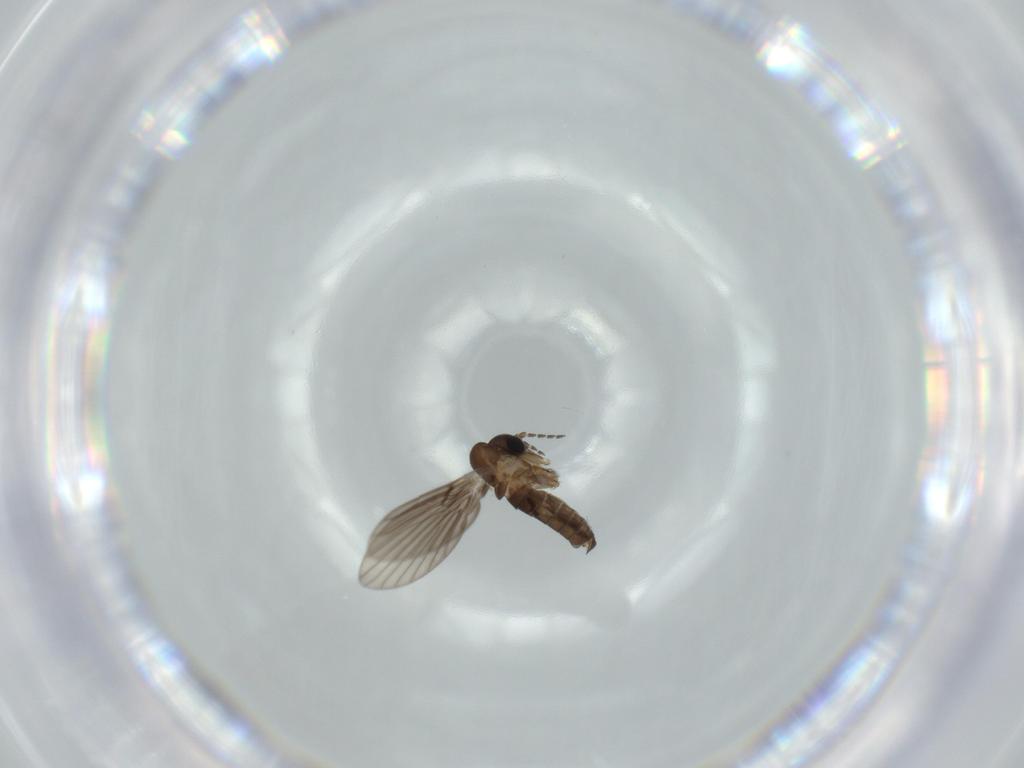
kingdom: Animalia
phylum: Arthropoda
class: Insecta
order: Diptera
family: Psychodidae
